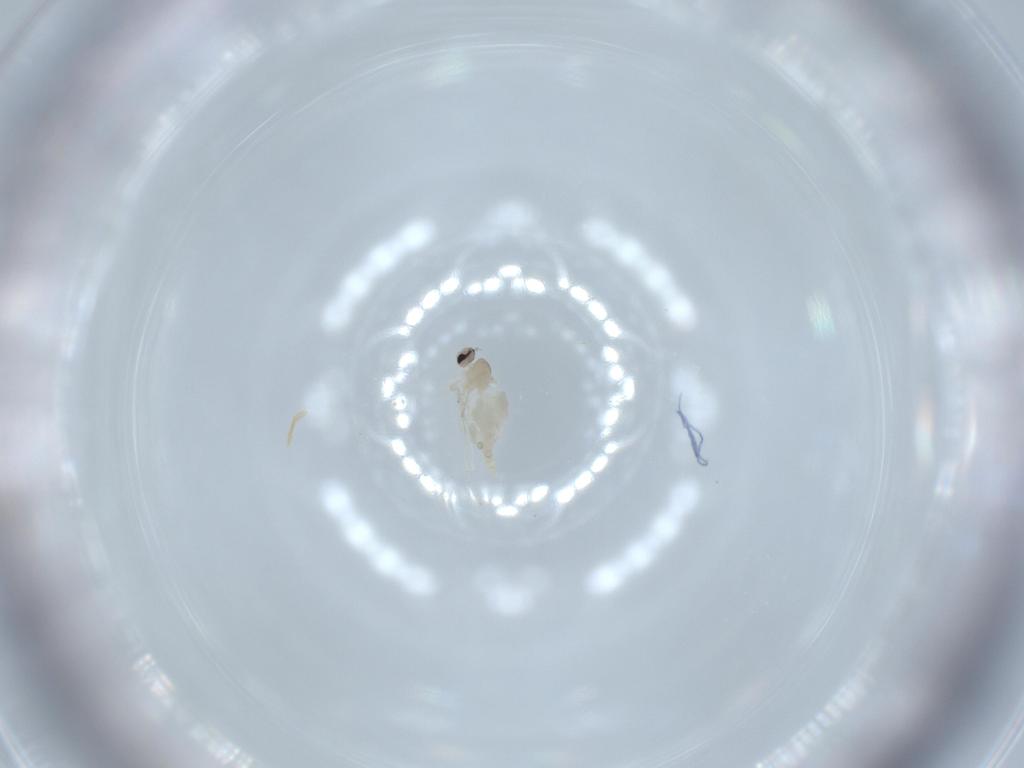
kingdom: Animalia
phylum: Arthropoda
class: Insecta
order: Diptera
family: Cecidomyiidae
